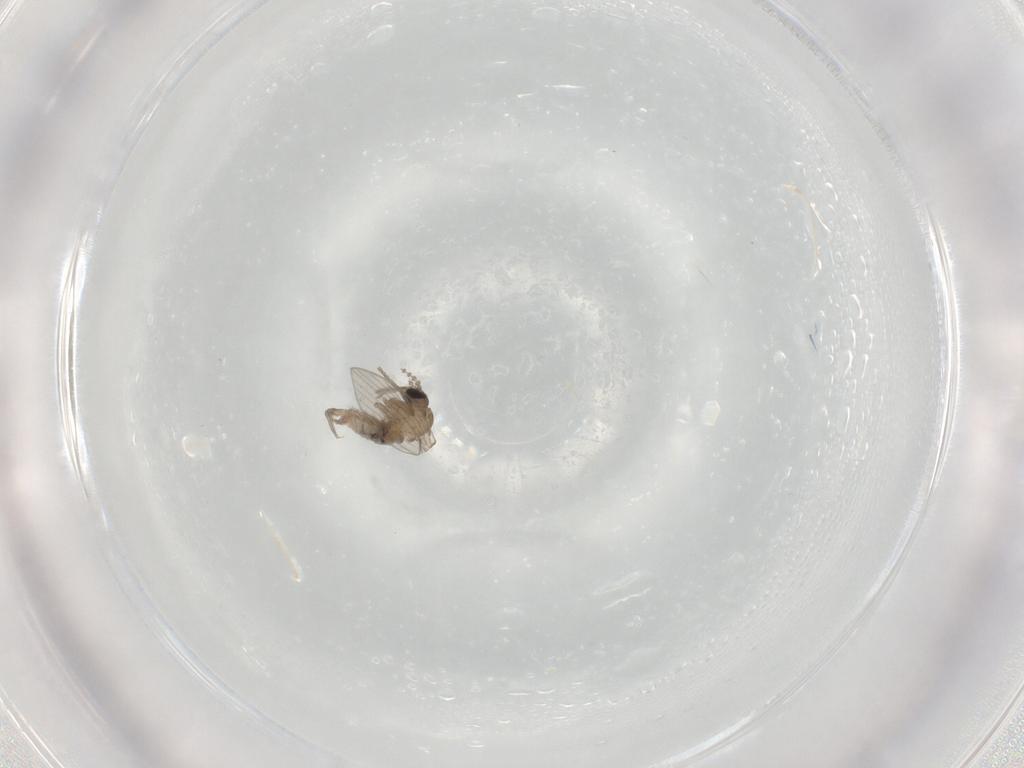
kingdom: Animalia
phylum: Arthropoda
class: Insecta
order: Diptera
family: Psychodidae
